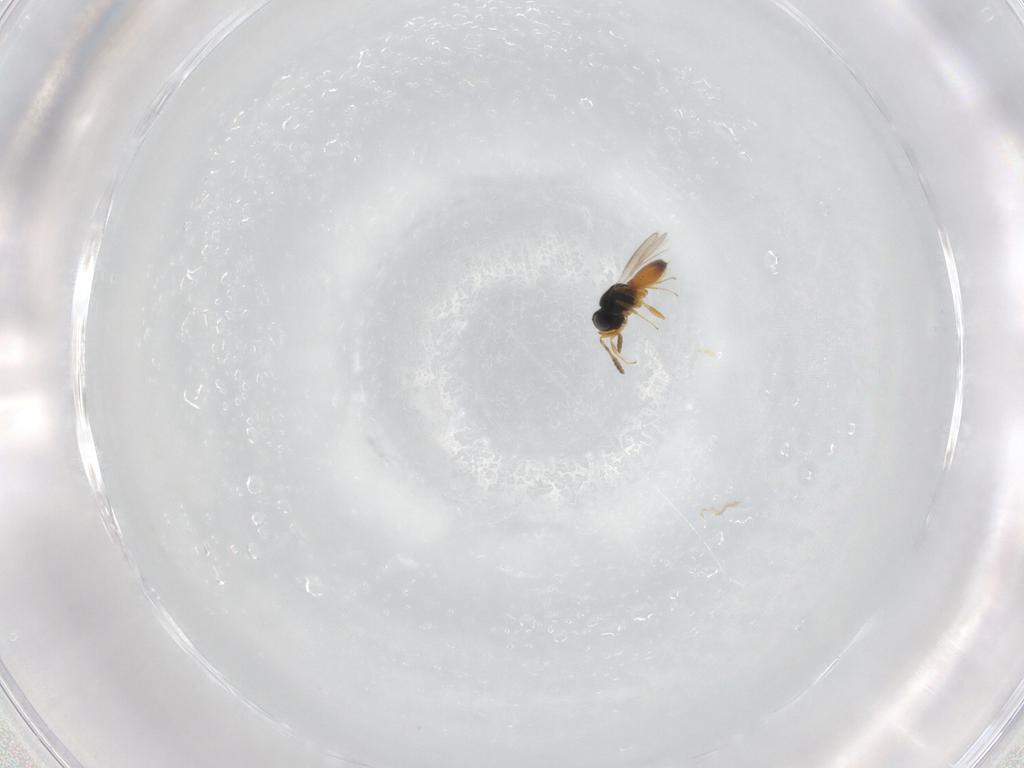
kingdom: Animalia
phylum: Arthropoda
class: Insecta
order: Hymenoptera
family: Scelionidae
